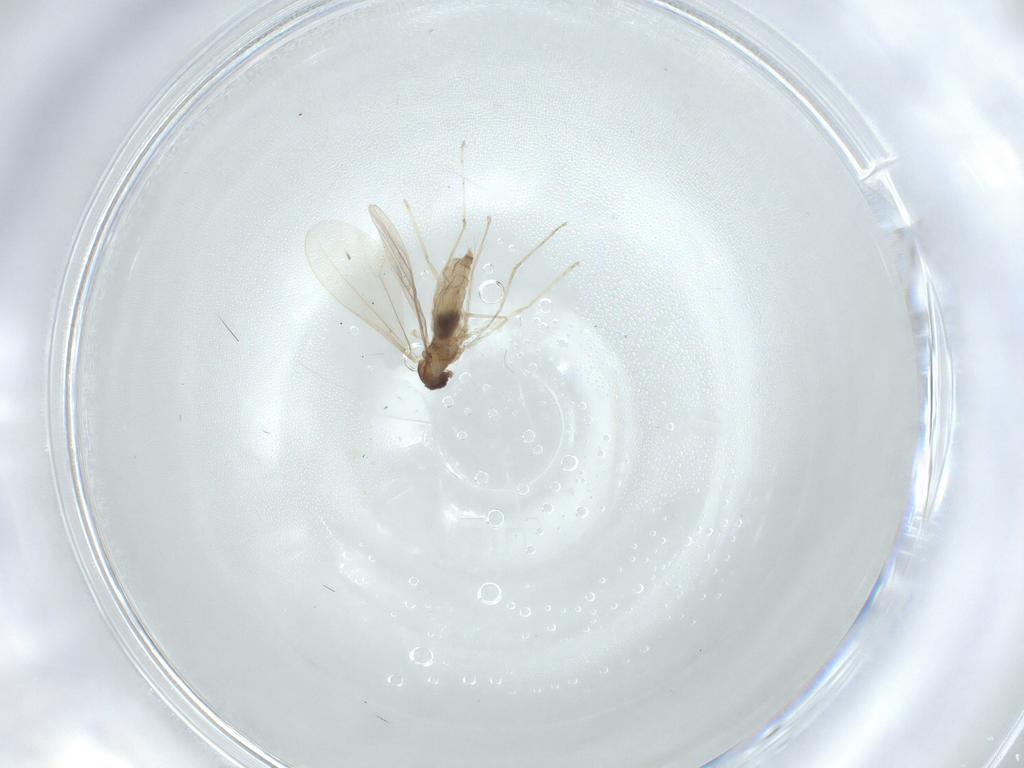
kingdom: Animalia
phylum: Arthropoda
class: Insecta
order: Diptera
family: Cecidomyiidae
